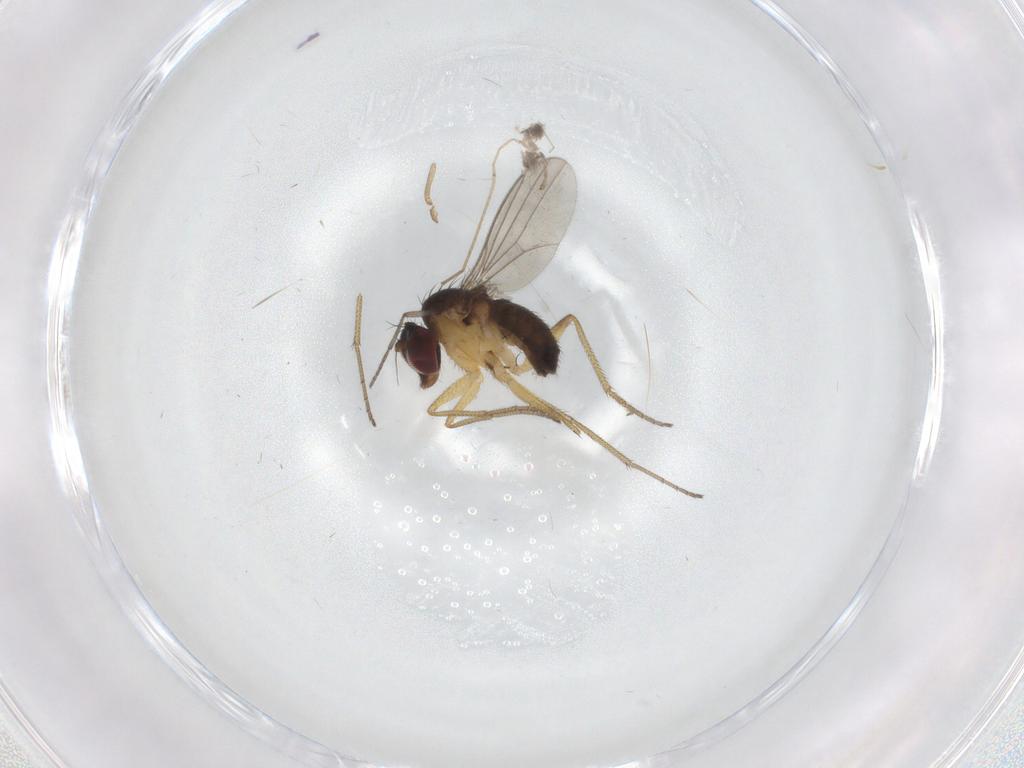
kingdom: Animalia
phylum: Arthropoda
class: Insecta
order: Diptera
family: Dolichopodidae
